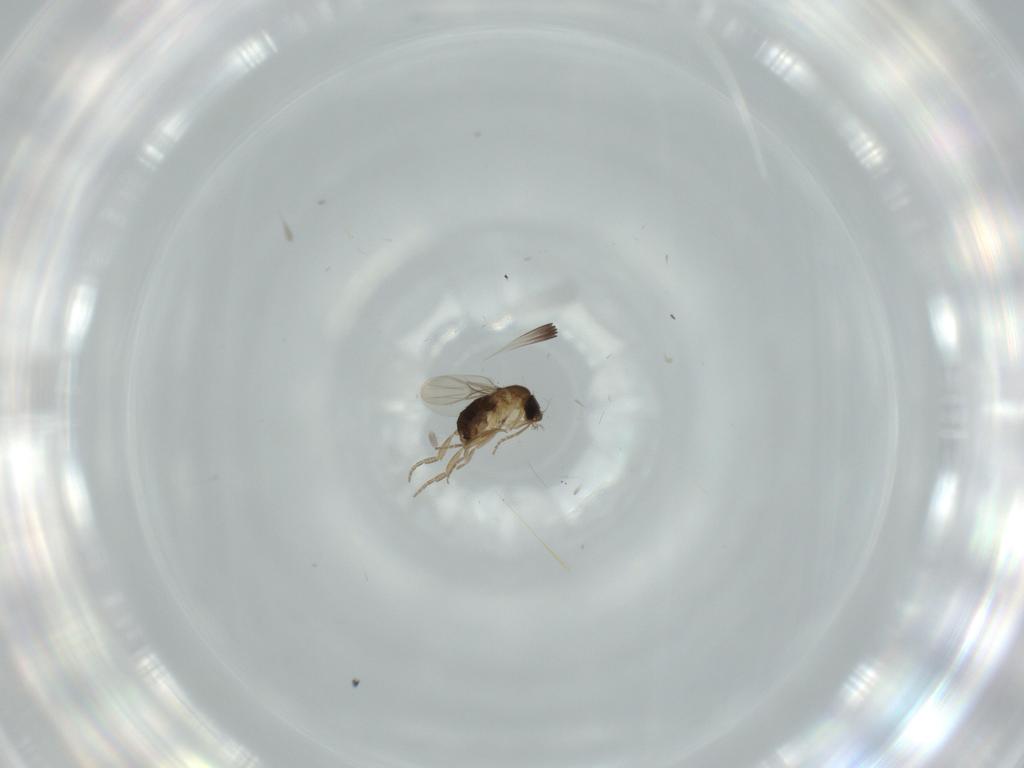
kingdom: Animalia
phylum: Arthropoda
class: Insecta
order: Diptera
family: Phoridae
